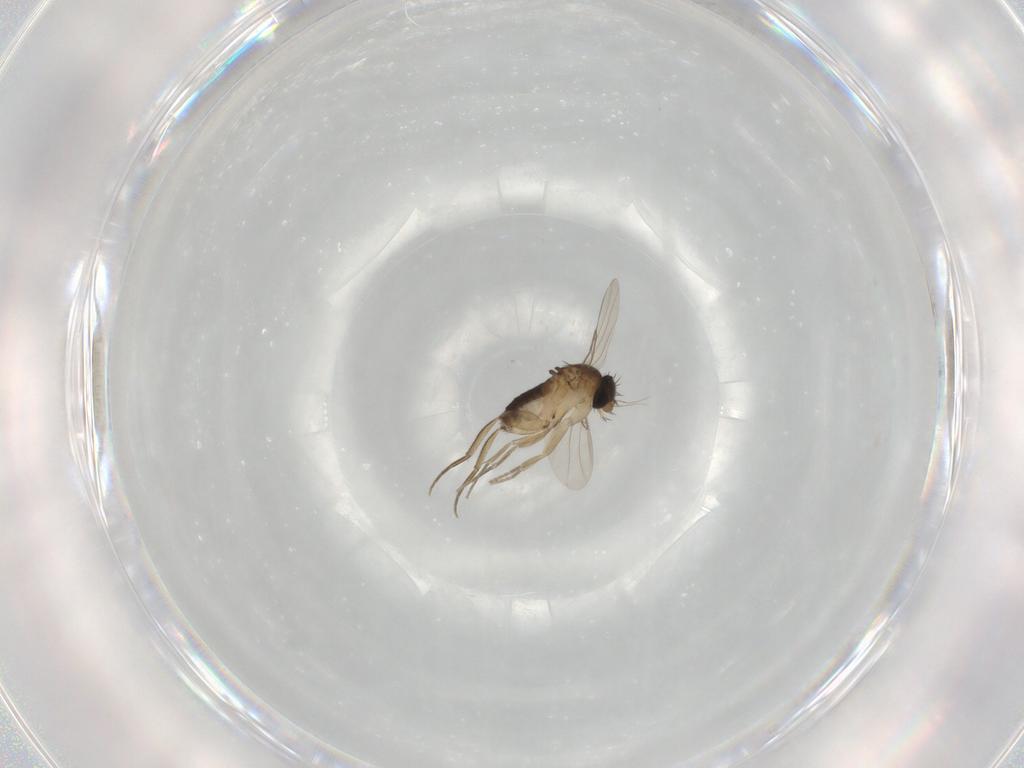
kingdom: Animalia
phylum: Arthropoda
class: Insecta
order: Diptera
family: Phoridae
